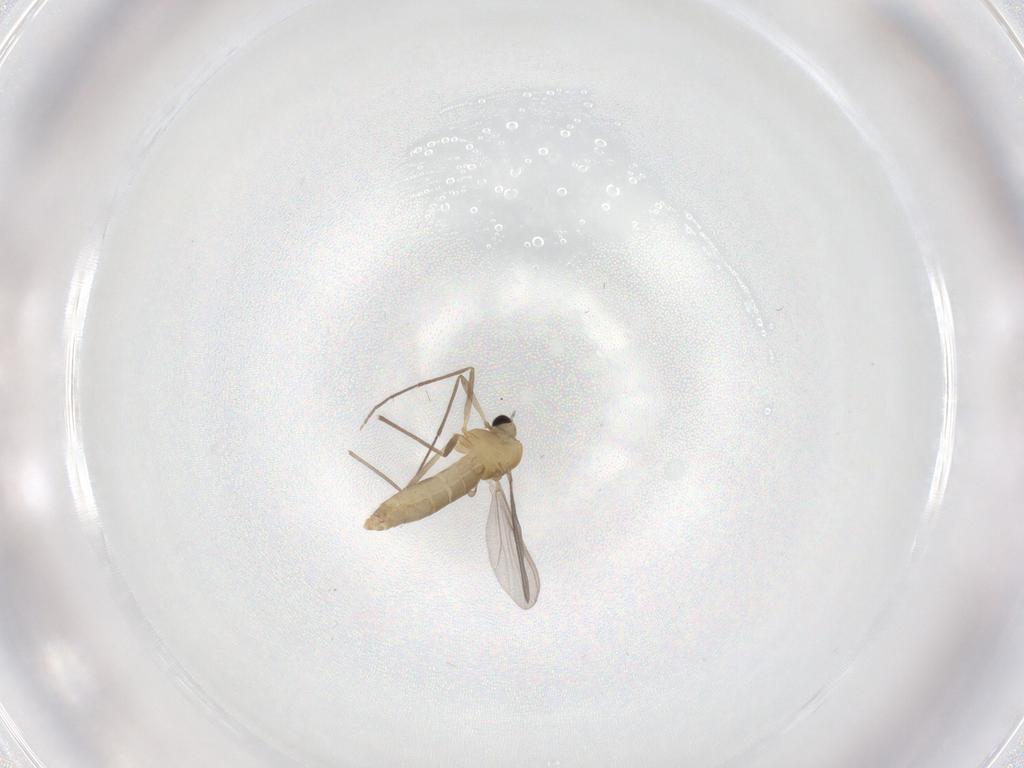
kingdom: Animalia
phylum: Arthropoda
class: Insecta
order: Diptera
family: Chironomidae
